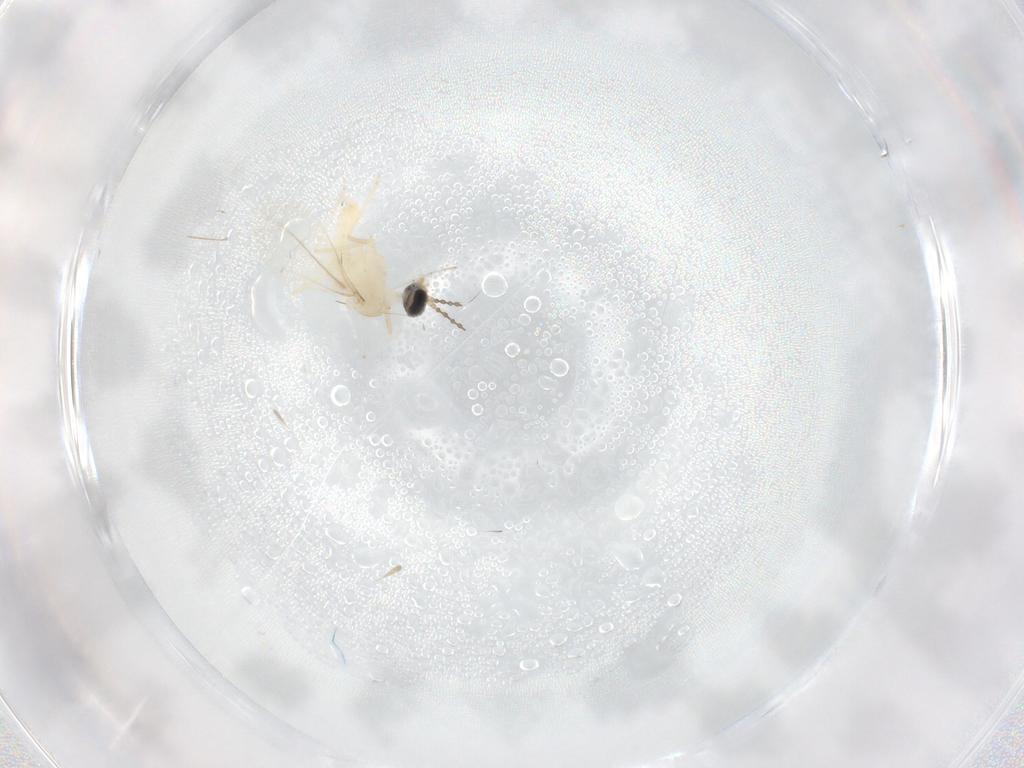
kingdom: Animalia
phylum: Arthropoda
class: Insecta
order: Diptera
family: Cecidomyiidae
